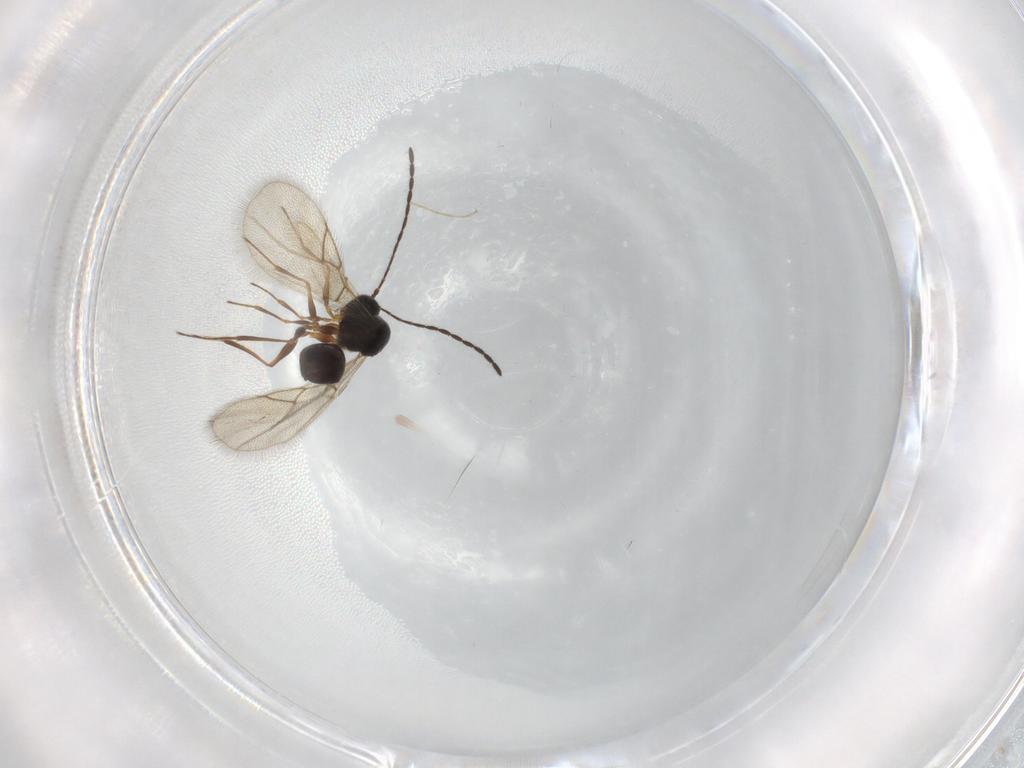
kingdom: Animalia
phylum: Arthropoda
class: Insecta
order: Hymenoptera
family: Figitidae
